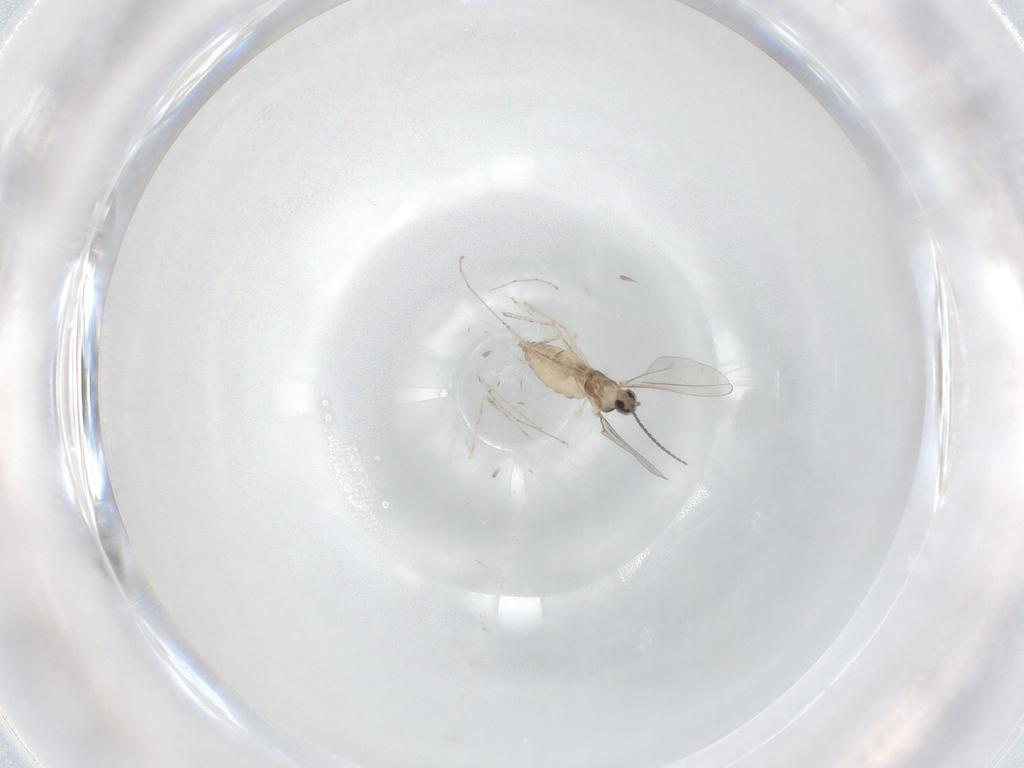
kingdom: Animalia
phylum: Arthropoda
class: Insecta
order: Diptera
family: Cecidomyiidae
